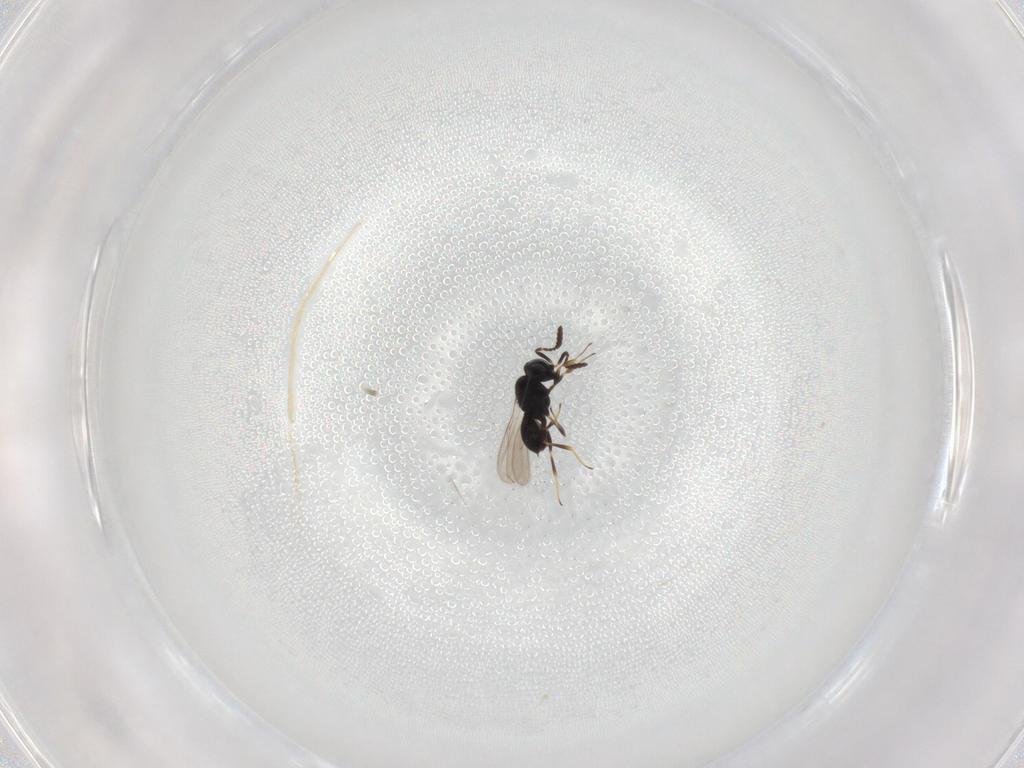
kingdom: Animalia
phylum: Arthropoda
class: Insecta
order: Hymenoptera
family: Scelionidae
